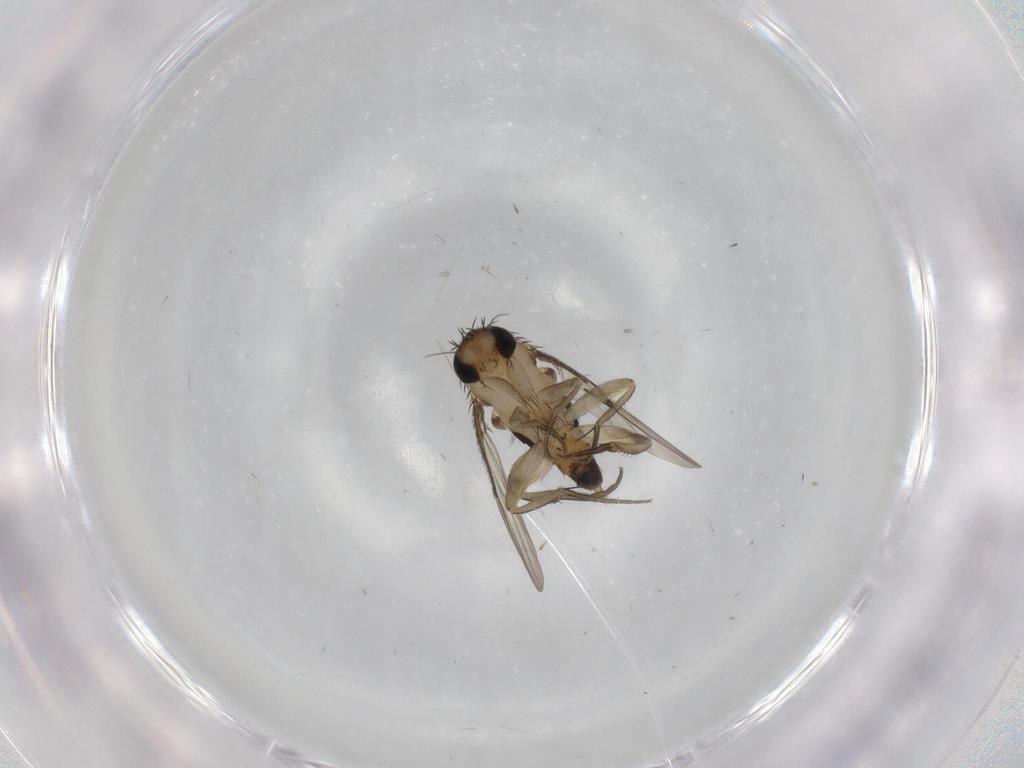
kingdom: Animalia
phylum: Arthropoda
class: Insecta
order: Diptera
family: Phoridae
